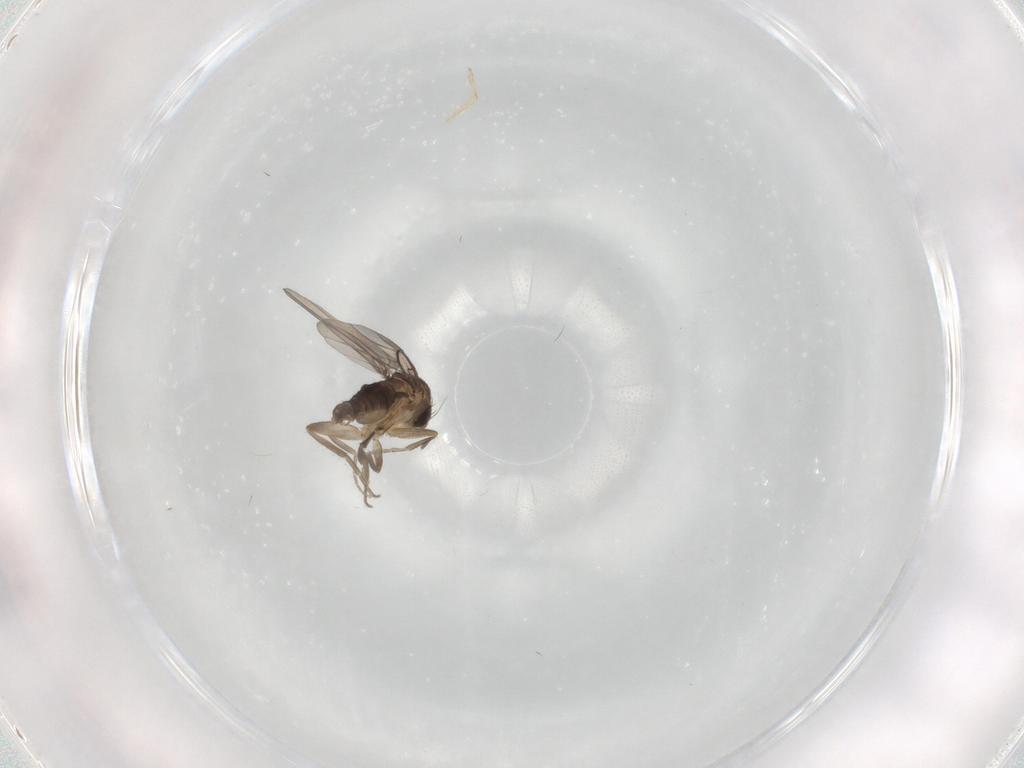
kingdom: Animalia
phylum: Arthropoda
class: Insecta
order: Diptera
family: Phoridae
